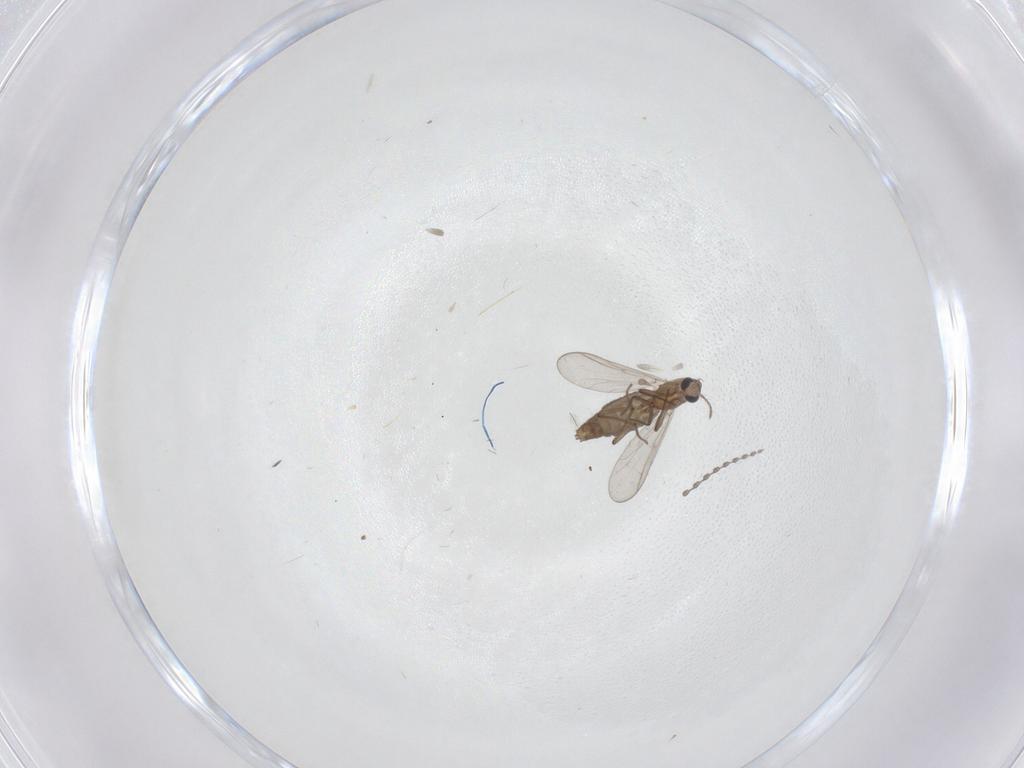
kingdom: Animalia
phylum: Arthropoda
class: Insecta
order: Diptera
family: Chironomidae
